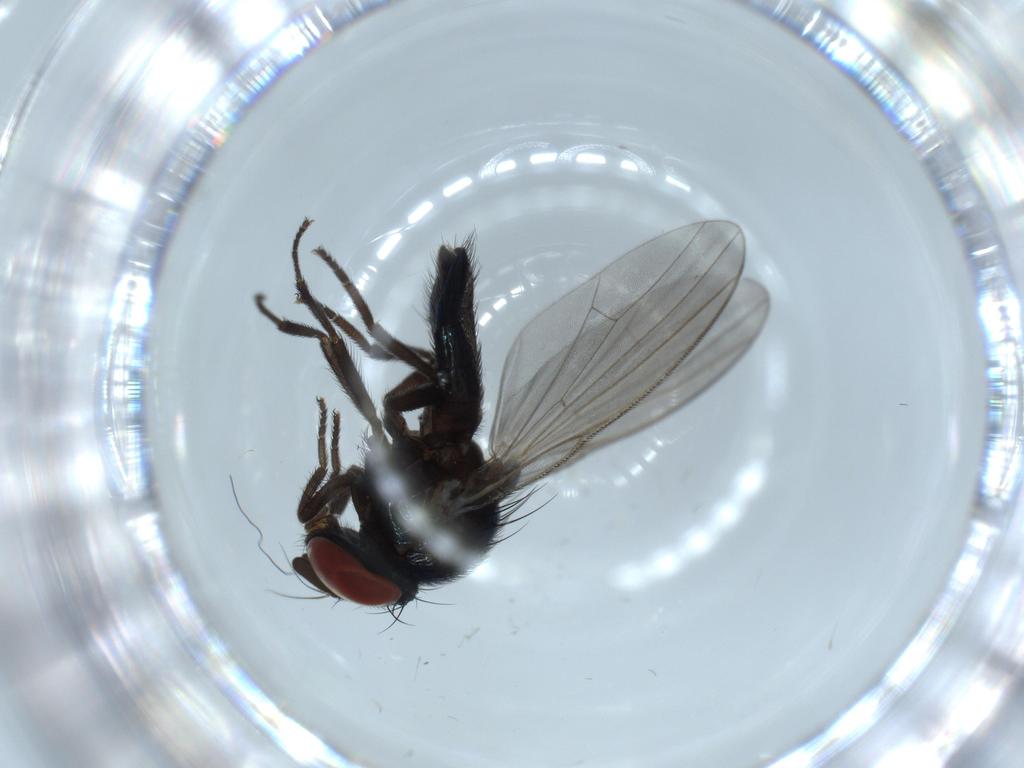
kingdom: Animalia
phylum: Arthropoda
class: Insecta
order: Diptera
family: Lonchaeidae
